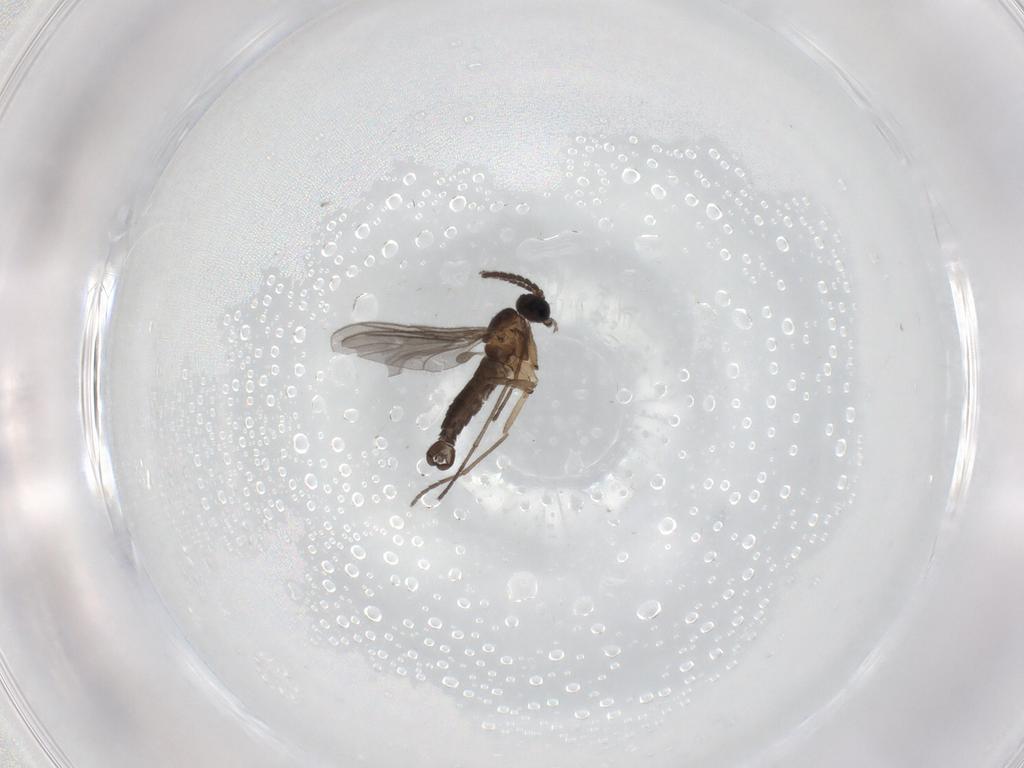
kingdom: Animalia
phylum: Arthropoda
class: Insecta
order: Diptera
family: Sciaridae
